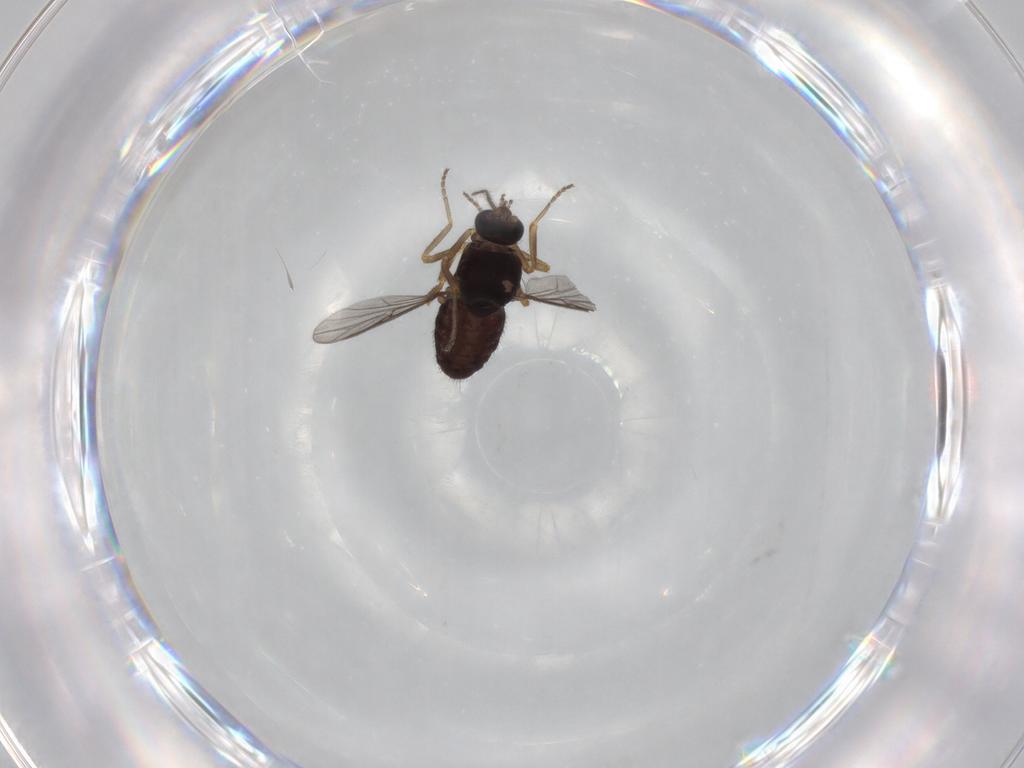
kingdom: Animalia
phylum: Arthropoda
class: Insecta
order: Diptera
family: Ceratopogonidae
